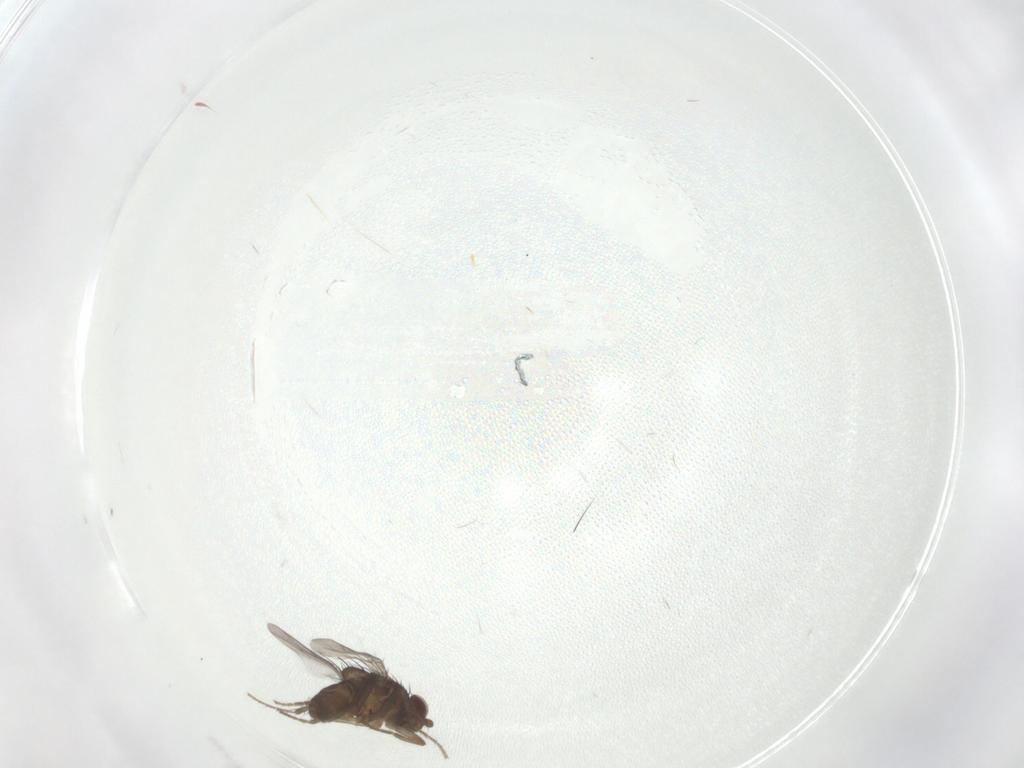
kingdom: Animalia
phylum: Arthropoda
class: Insecta
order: Diptera
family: Sphaeroceridae
